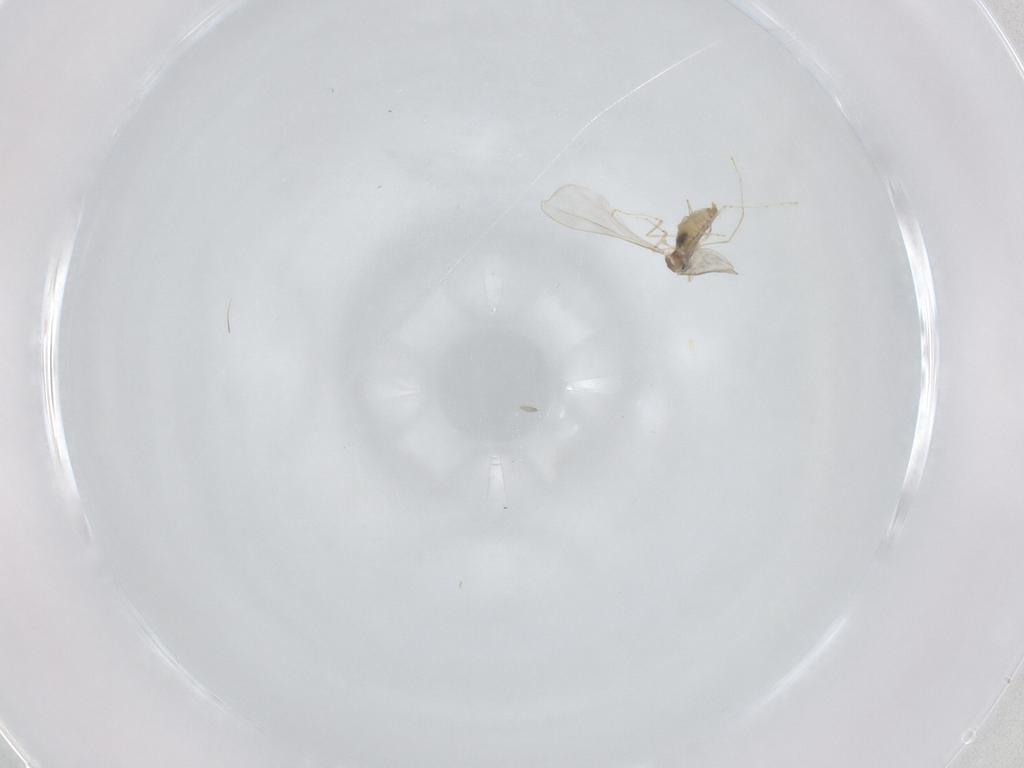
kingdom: Animalia
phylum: Arthropoda
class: Insecta
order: Diptera
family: Cecidomyiidae
